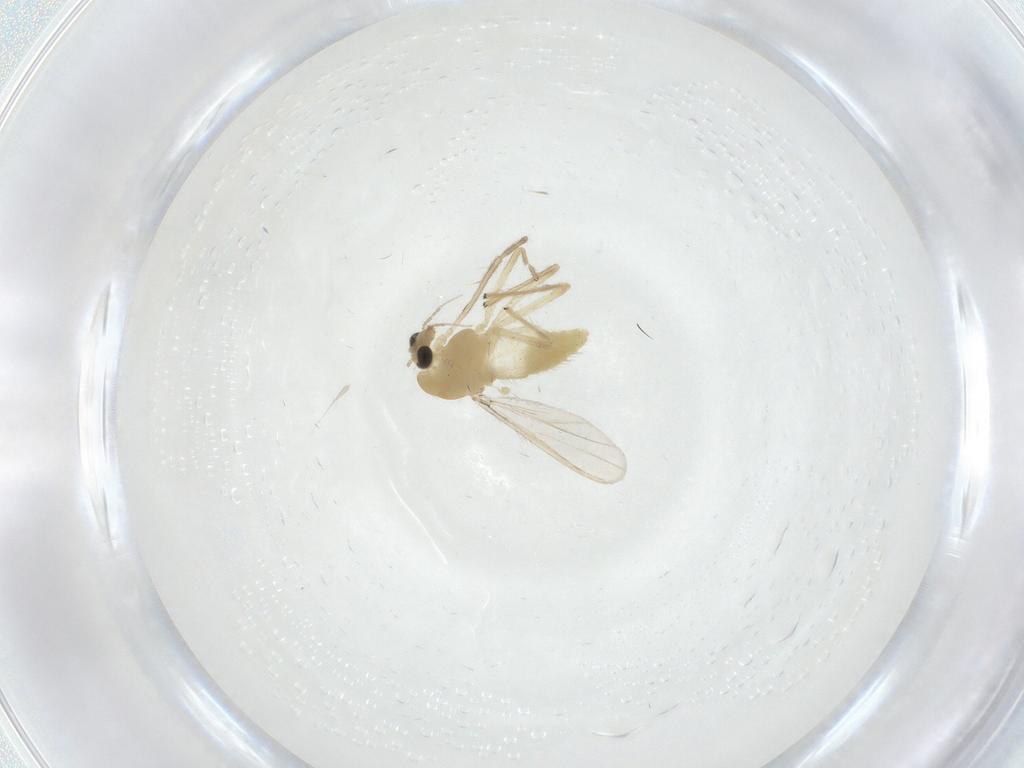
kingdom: Animalia
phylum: Arthropoda
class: Insecta
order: Diptera
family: Chironomidae
